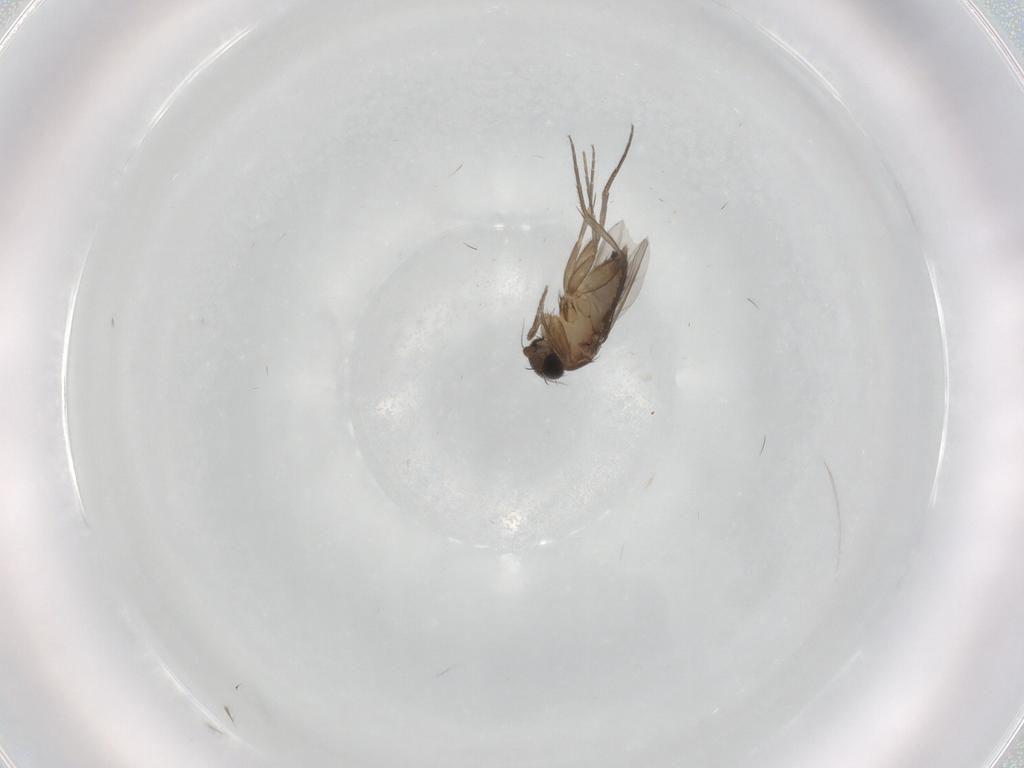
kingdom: Animalia
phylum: Arthropoda
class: Insecta
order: Diptera
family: Phoridae
